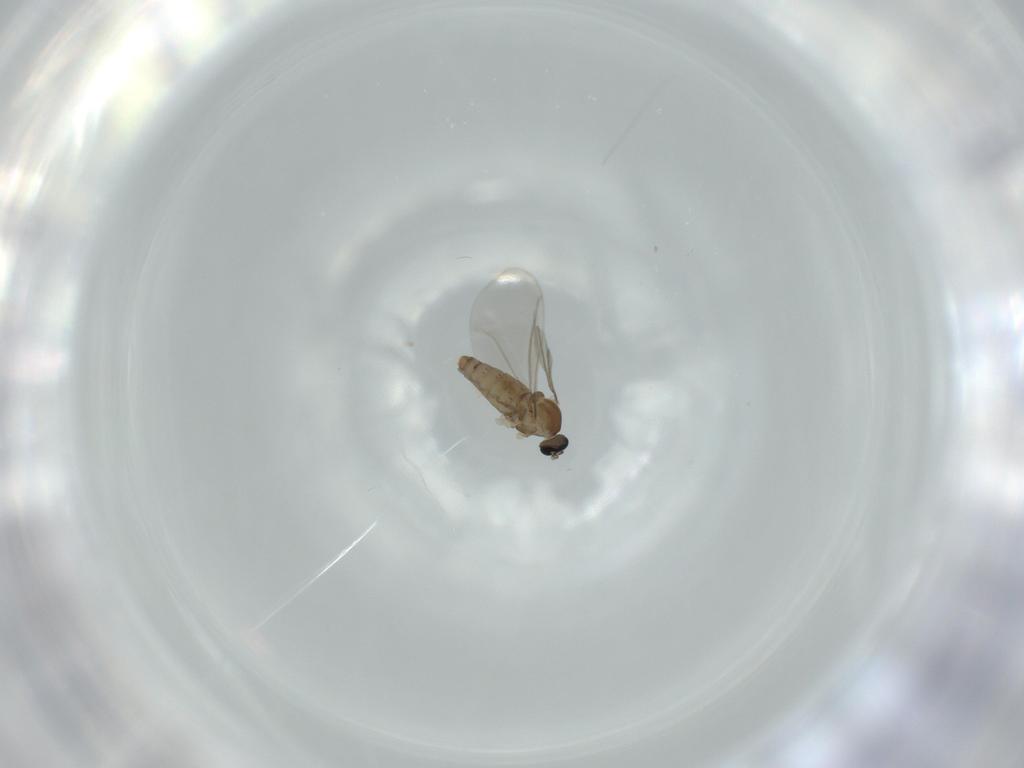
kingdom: Animalia
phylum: Arthropoda
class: Insecta
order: Diptera
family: Cecidomyiidae
